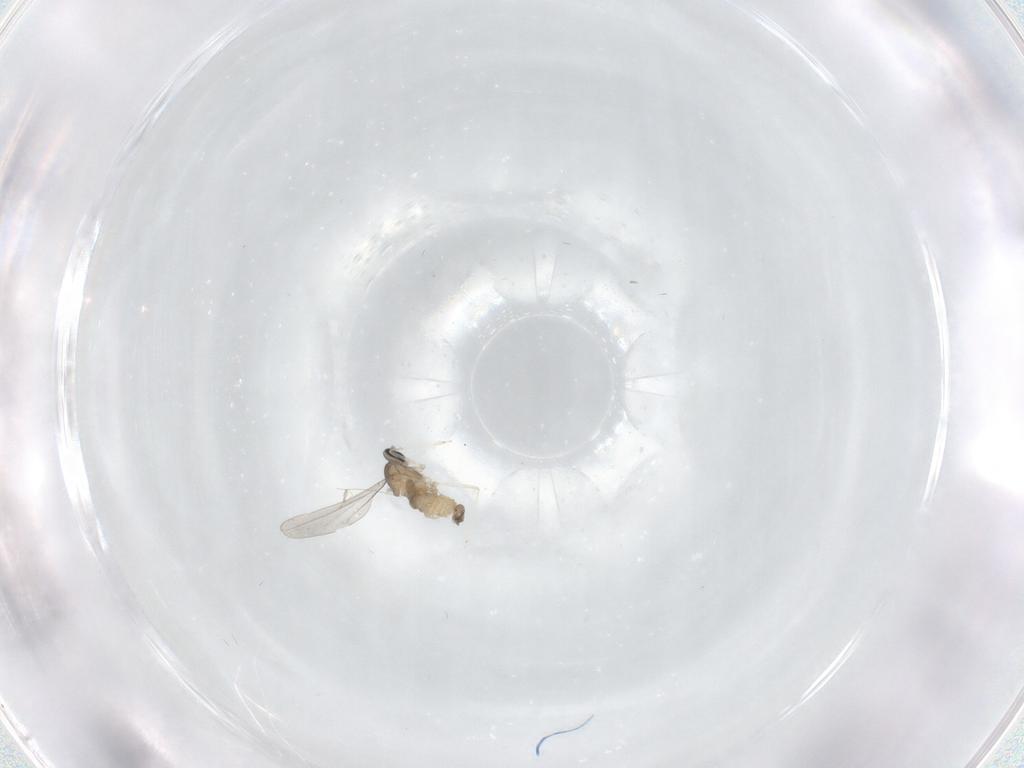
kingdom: Animalia
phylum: Arthropoda
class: Insecta
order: Diptera
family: Cecidomyiidae
